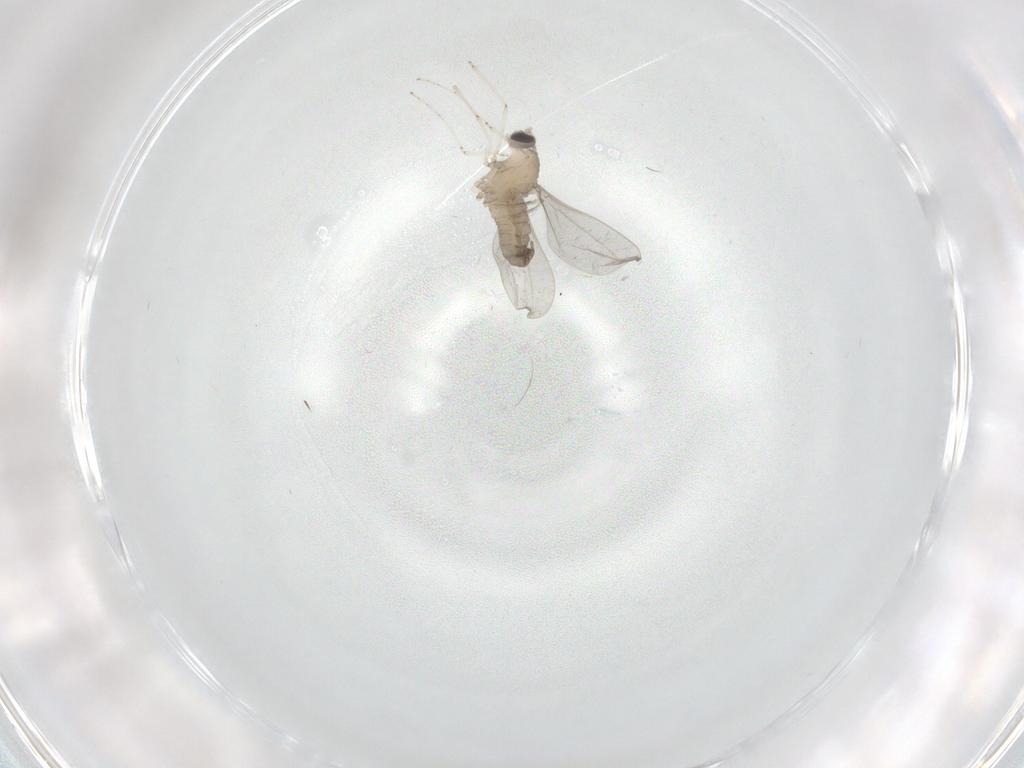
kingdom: Animalia
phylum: Arthropoda
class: Insecta
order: Diptera
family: Cecidomyiidae
